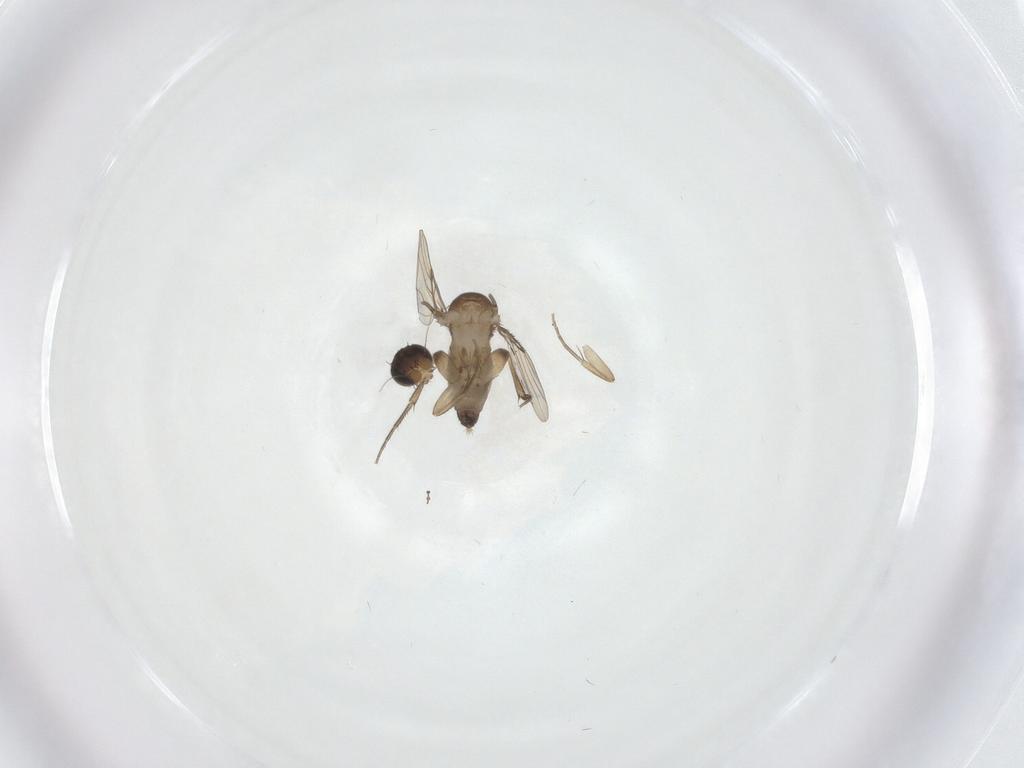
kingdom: Animalia
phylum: Arthropoda
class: Insecta
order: Diptera
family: Phoridae
